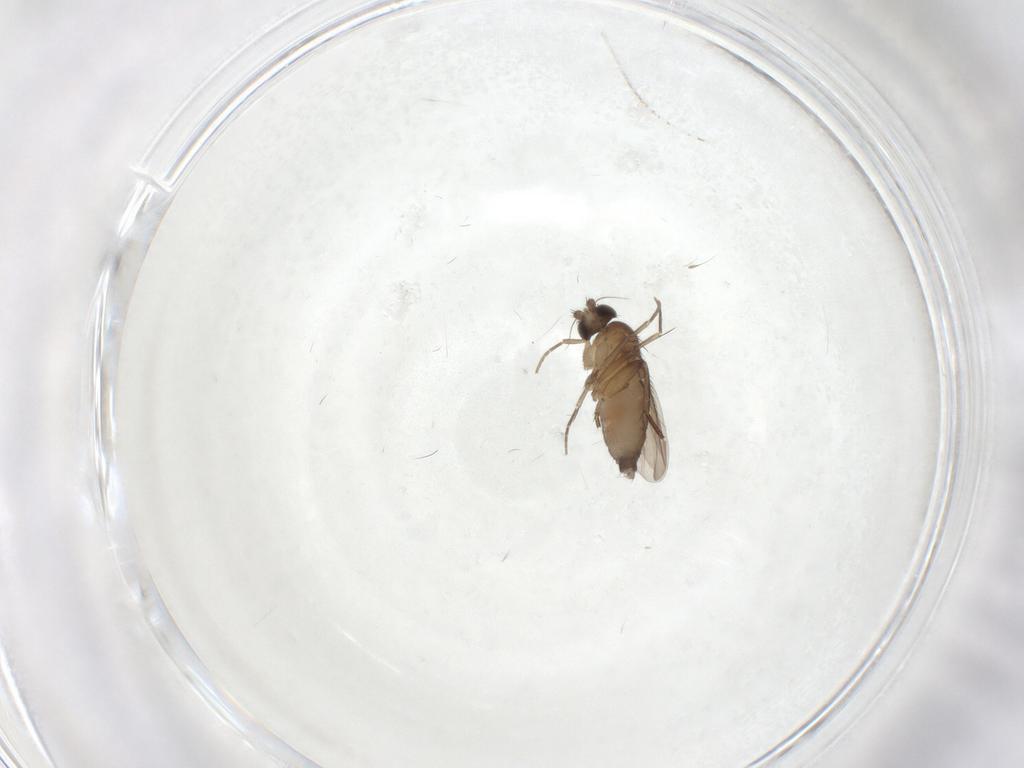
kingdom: Animalia
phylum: Arthropoda
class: Insecta
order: Diptera
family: Phoridae
